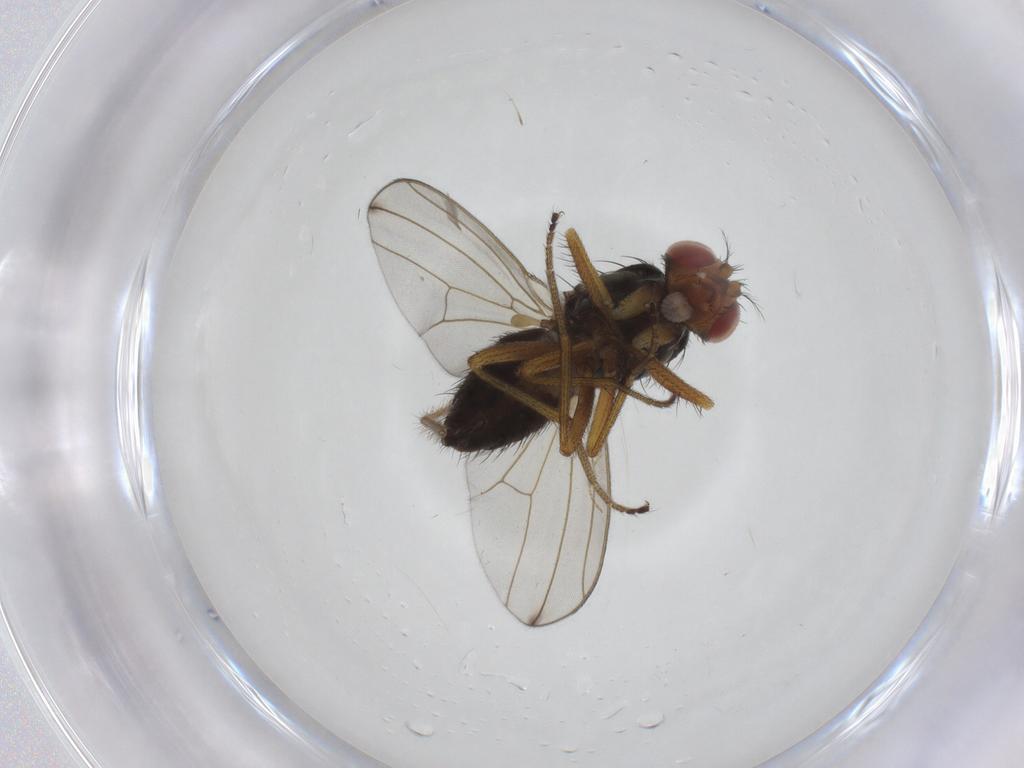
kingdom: Animalia
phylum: Arthropoda
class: Insecta
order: Diptera
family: Drosophilidae
